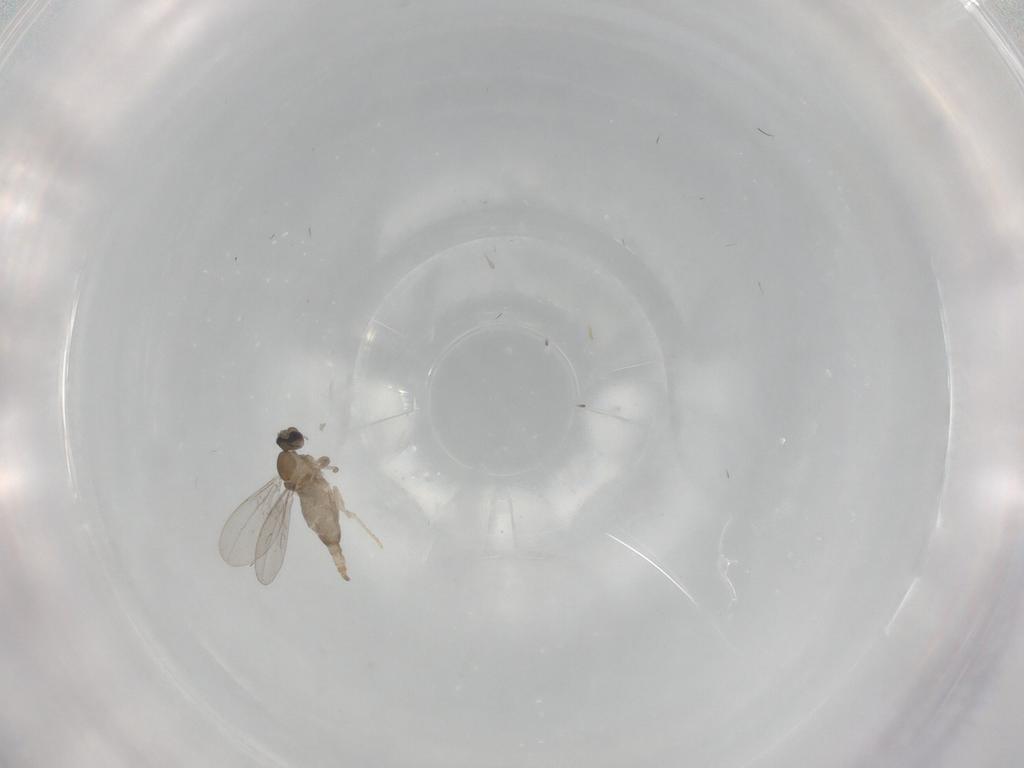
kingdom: Animalia
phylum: Arthropoda
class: Insecta
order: Diptera
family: Cecidomyiidae
